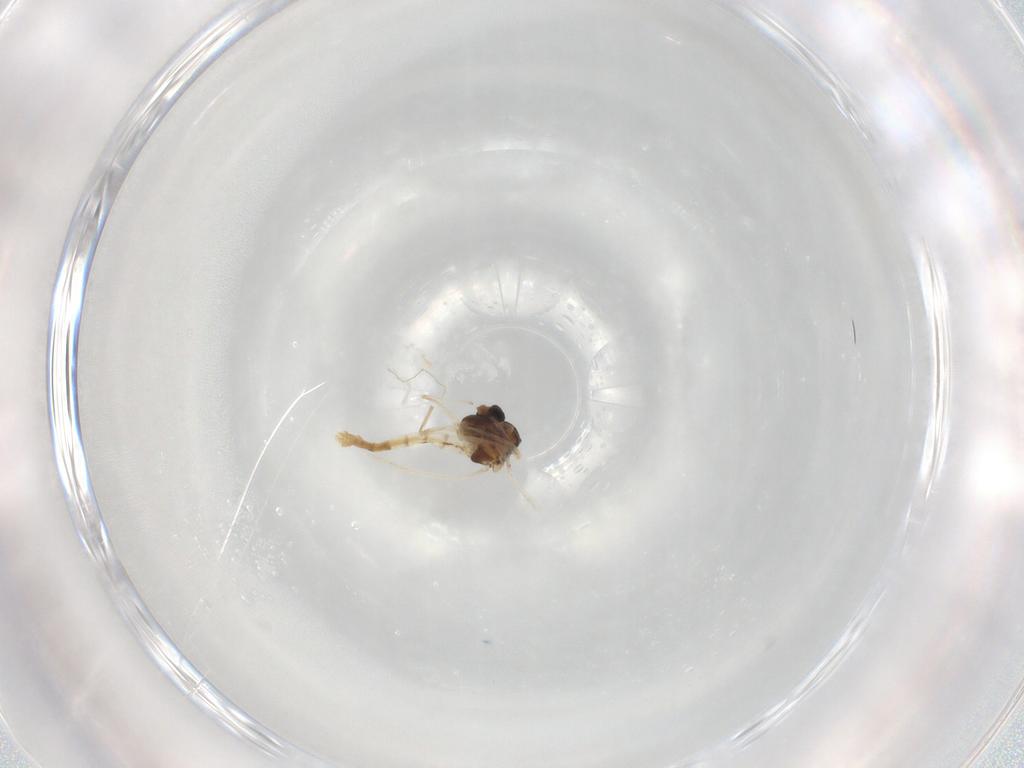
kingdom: Animalia
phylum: Arthropoda
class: Insecta
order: Diptera
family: Chironomidae
